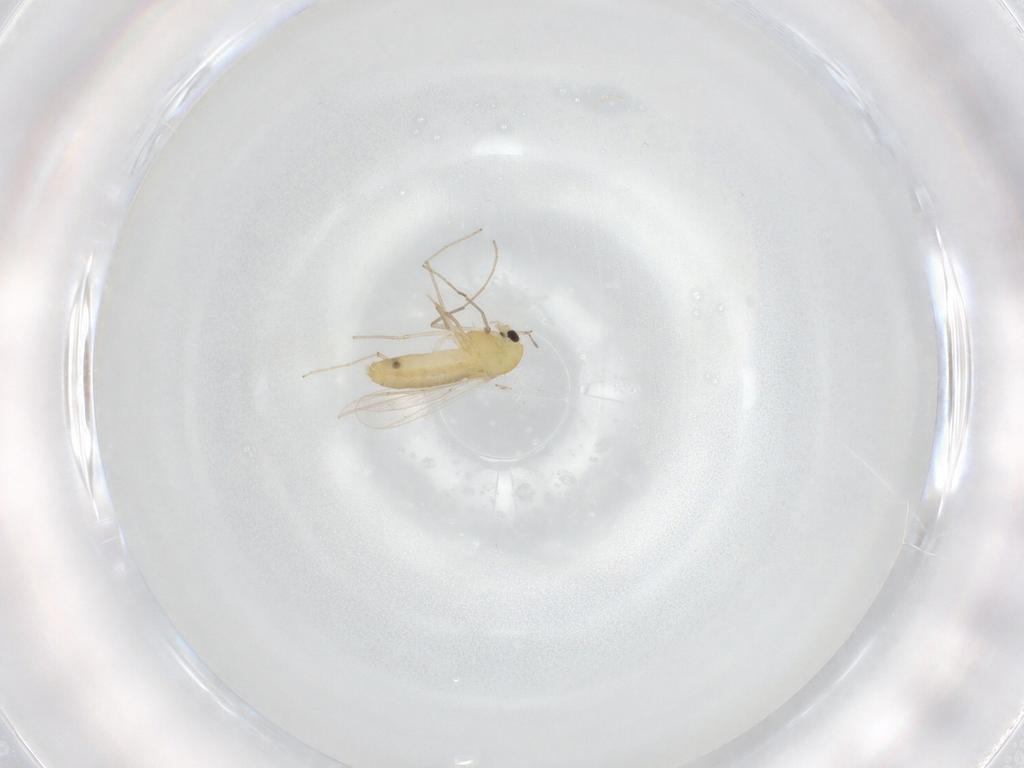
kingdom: Animalia
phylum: Arthropoda
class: Insecta
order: Diptera
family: Chironomidae
